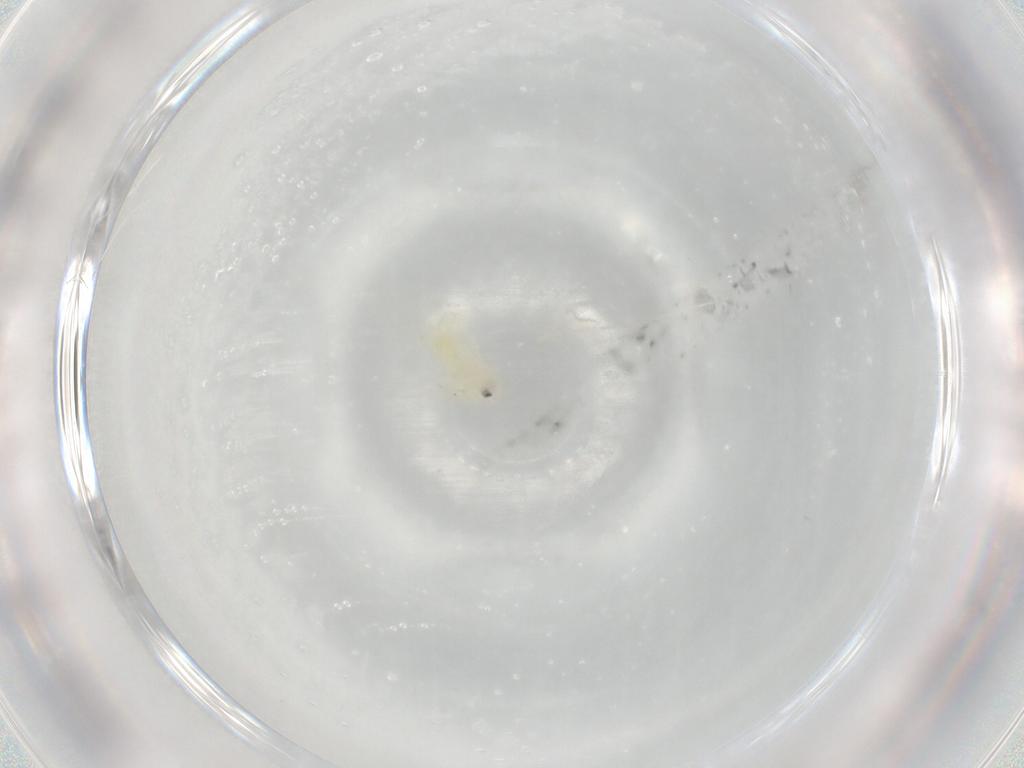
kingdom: Animalia
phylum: Arthropoda
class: Insecta
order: Hemiptera
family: Aleyrodidae
